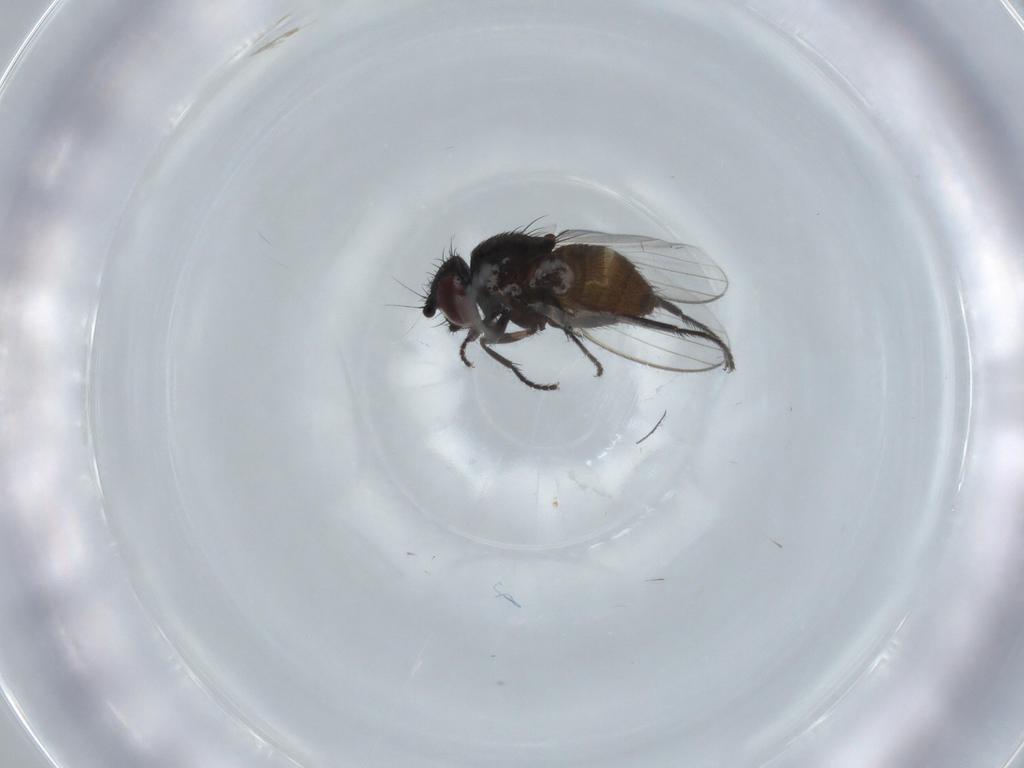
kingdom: Animalia
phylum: Arthropoda
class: Insecta
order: Diptera
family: Milichiidae
